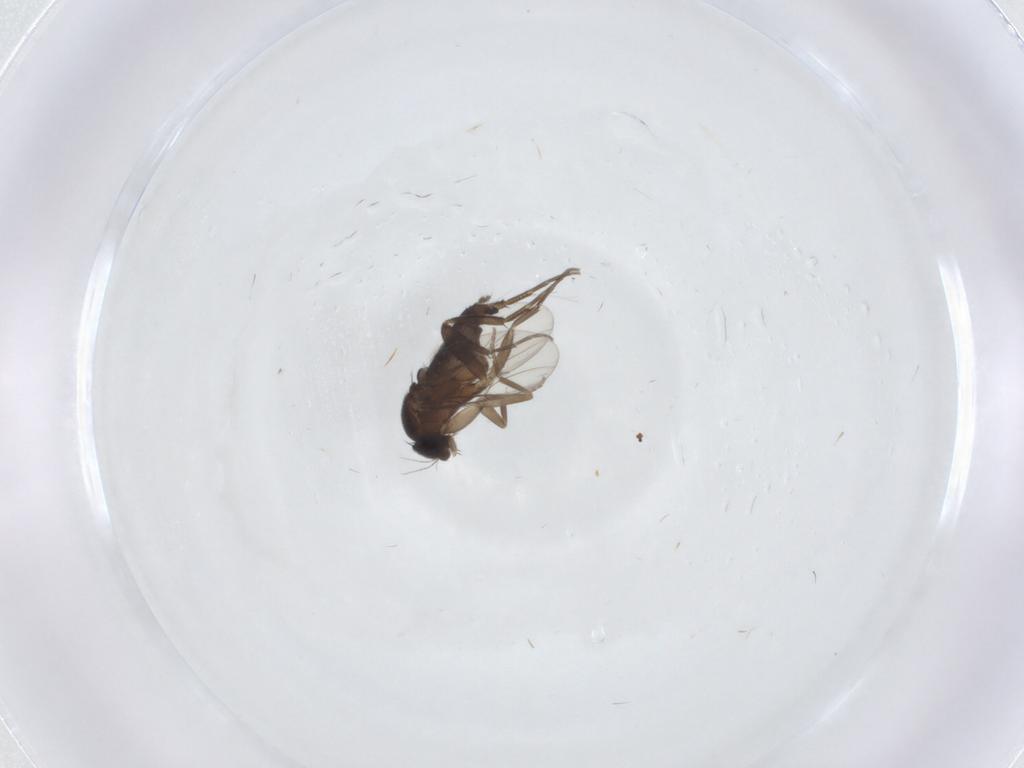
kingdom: Animalia
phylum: Arthropoda
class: Insecta
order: Diptera
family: Phoridae
